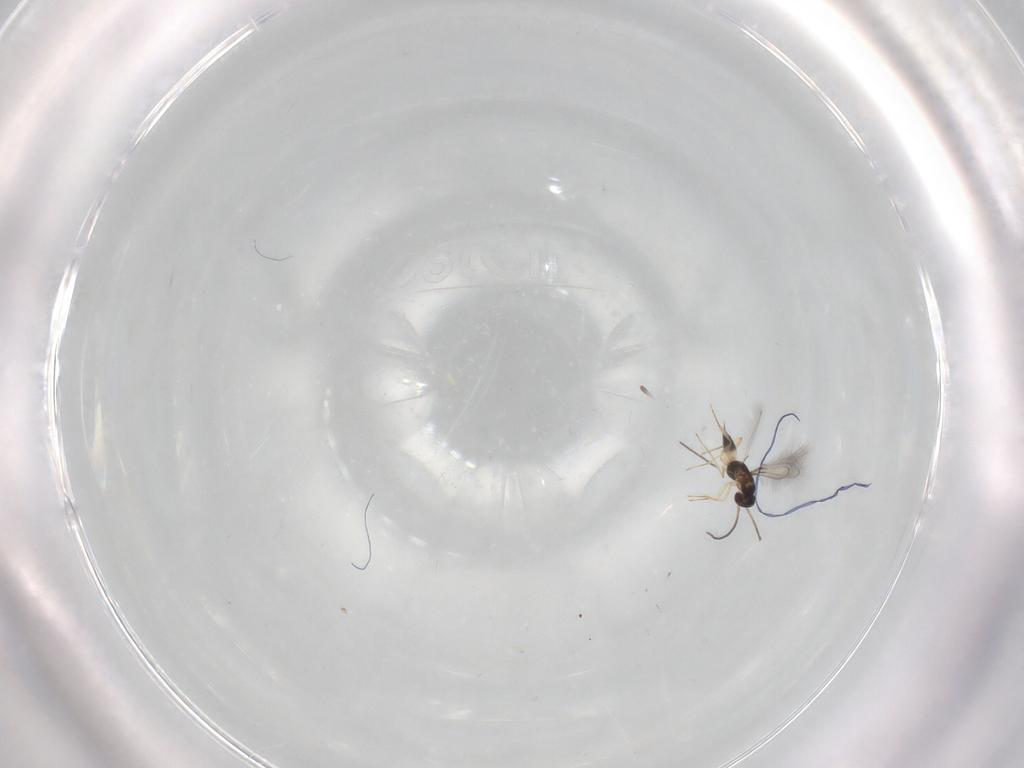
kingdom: Animalia
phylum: Arthropoda
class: Insecta
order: Hymenoptera
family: Mymaridae
